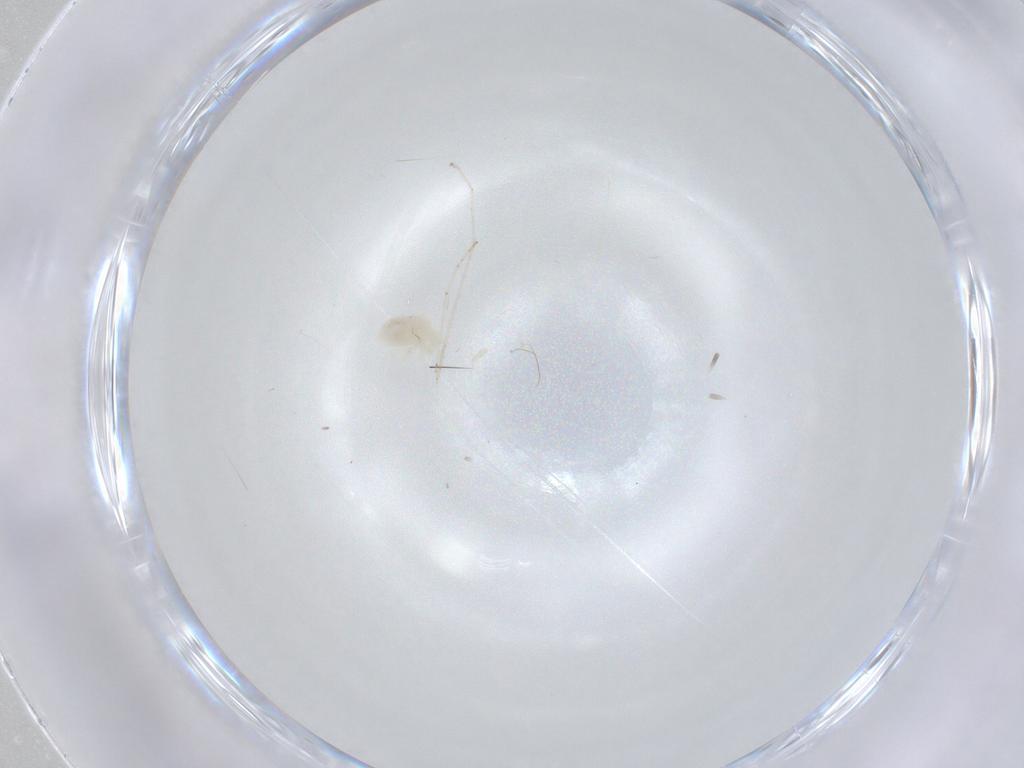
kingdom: Animalia
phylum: Arthropoda
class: Arachnida
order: Trombidiformes
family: Anystidae
